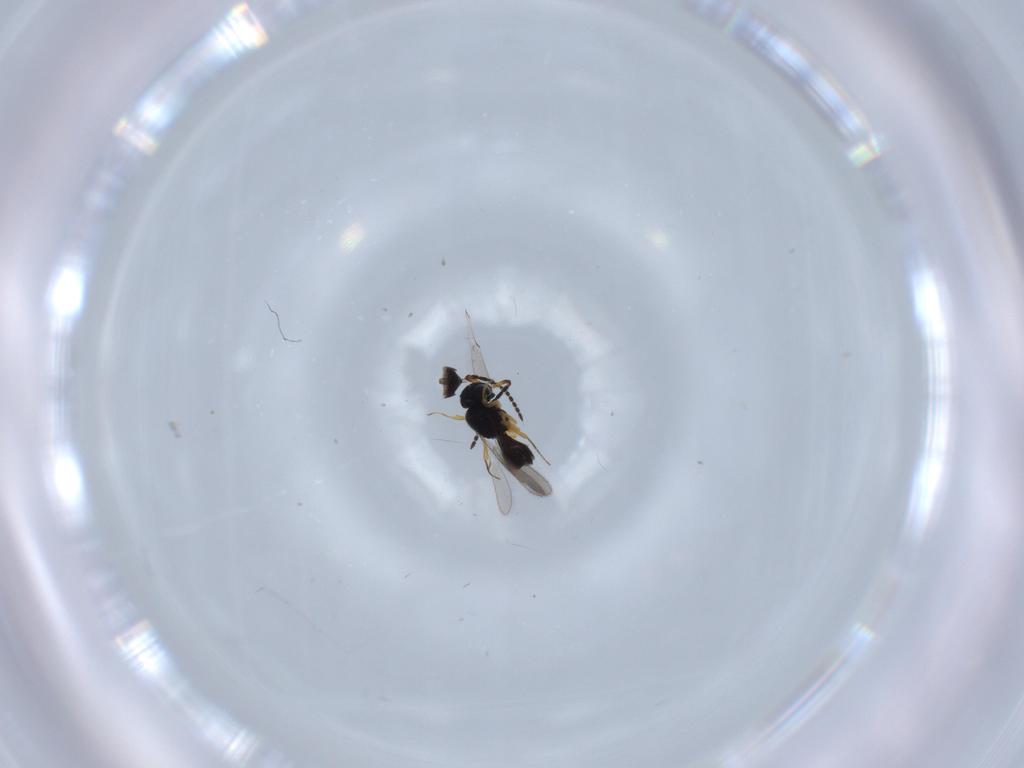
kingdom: Animalia
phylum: Arthropoda
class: Insecta
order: Hymenoptera
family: Scelionidae
